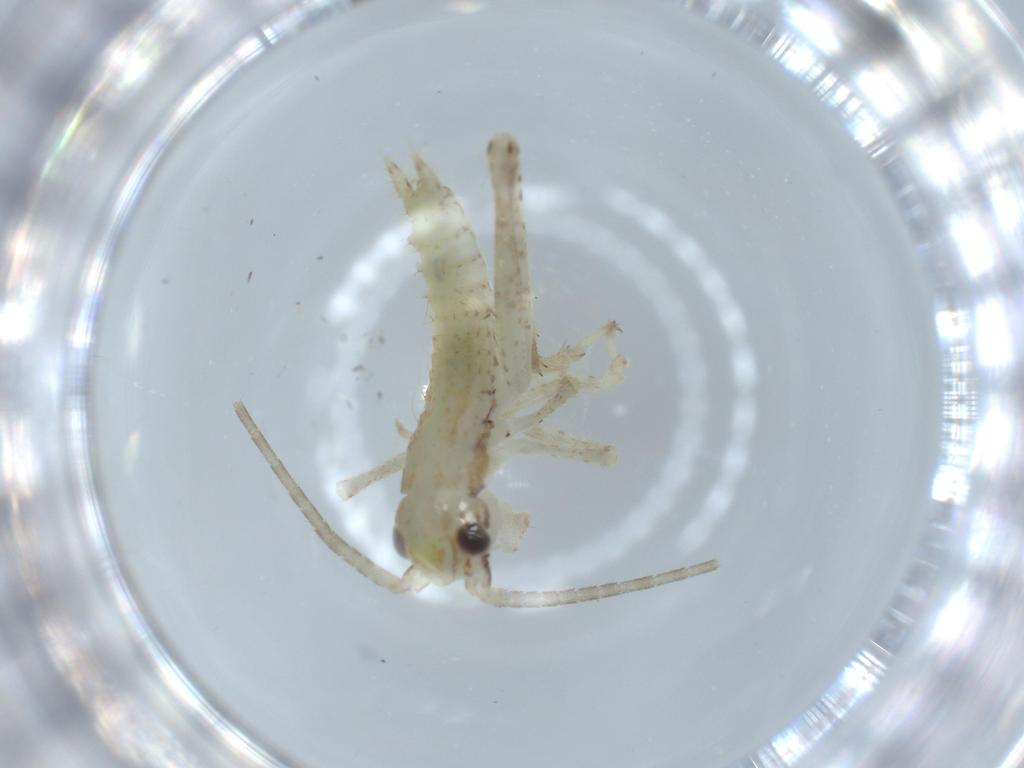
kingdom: Animalia
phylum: Arthropoda
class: Insecta
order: Orthoptera
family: Gryllidae
